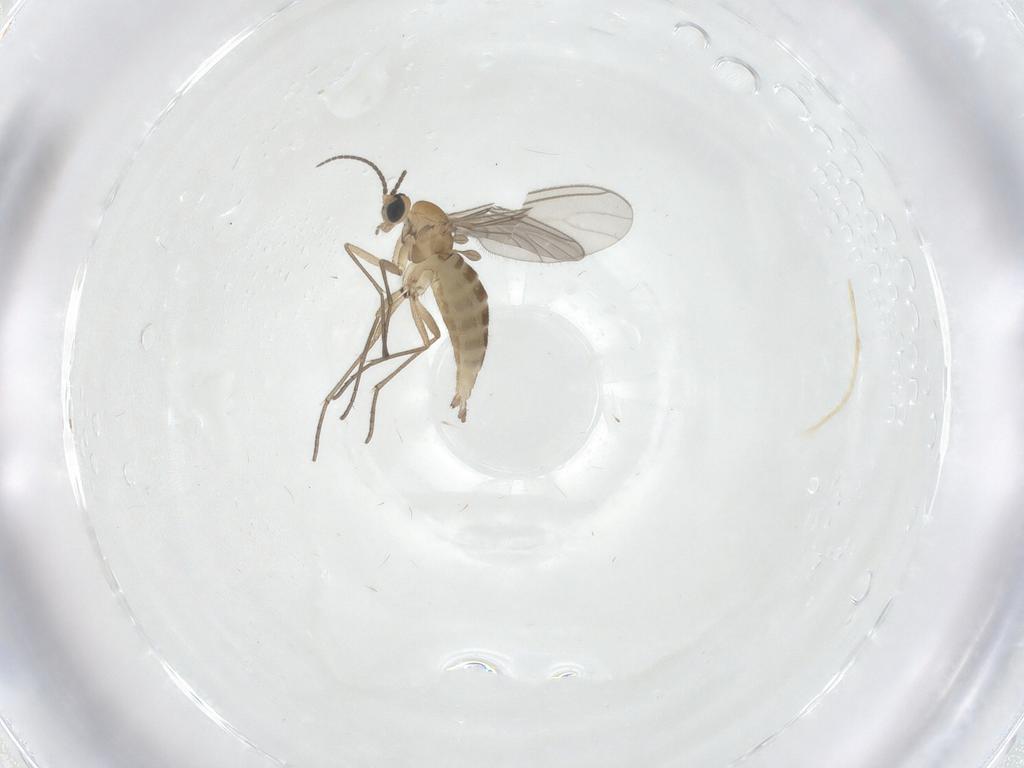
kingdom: Animalia
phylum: Arthropoda
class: Insecta
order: Diptera
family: Sciaridae
